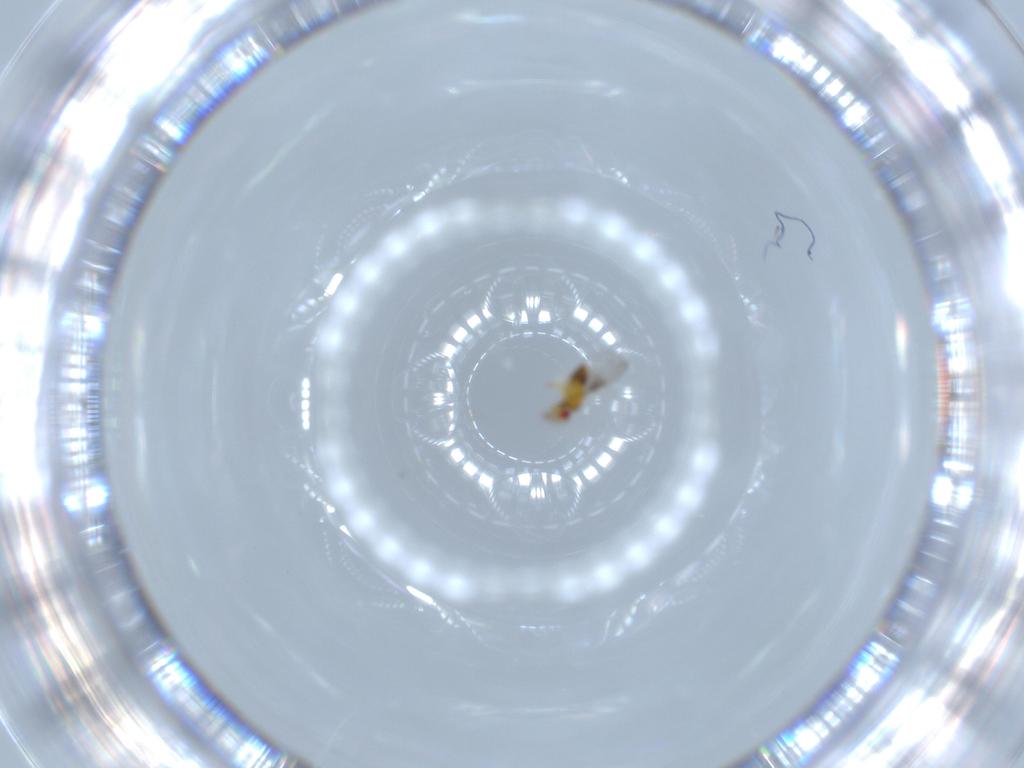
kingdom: Animalia
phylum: Arthropoda
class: Insecta
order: Hymenoptera
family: Trichogrammatidae
